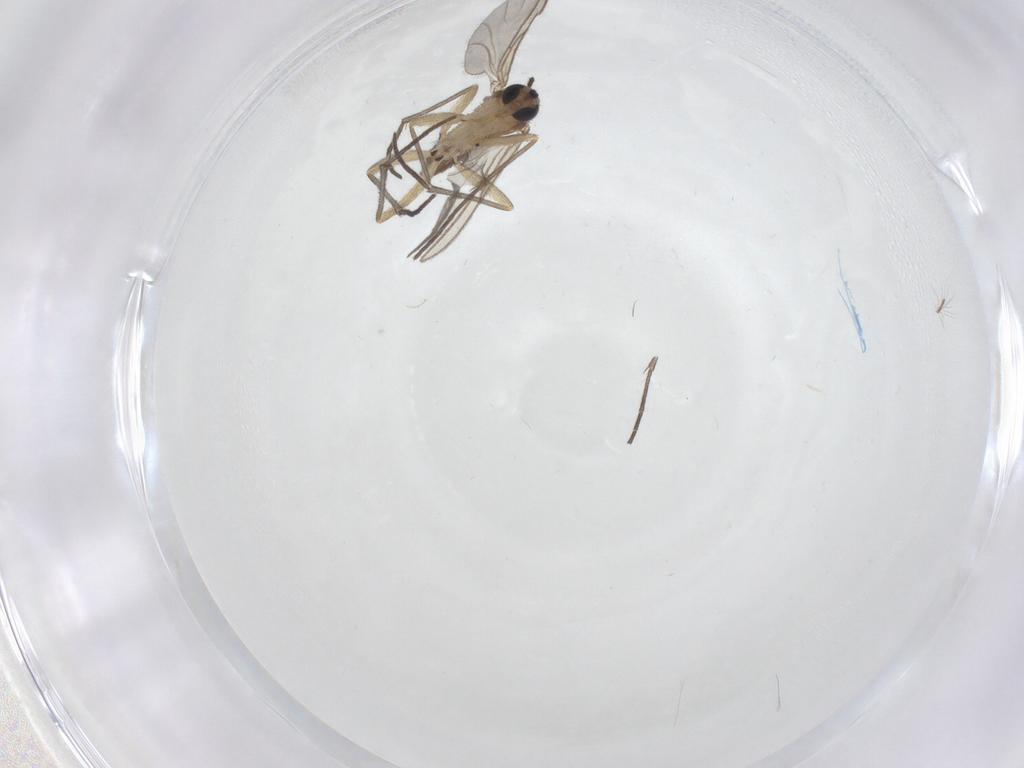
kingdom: Animalia
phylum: Arthropoda
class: Insecta
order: Diptera
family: Sciaridae
